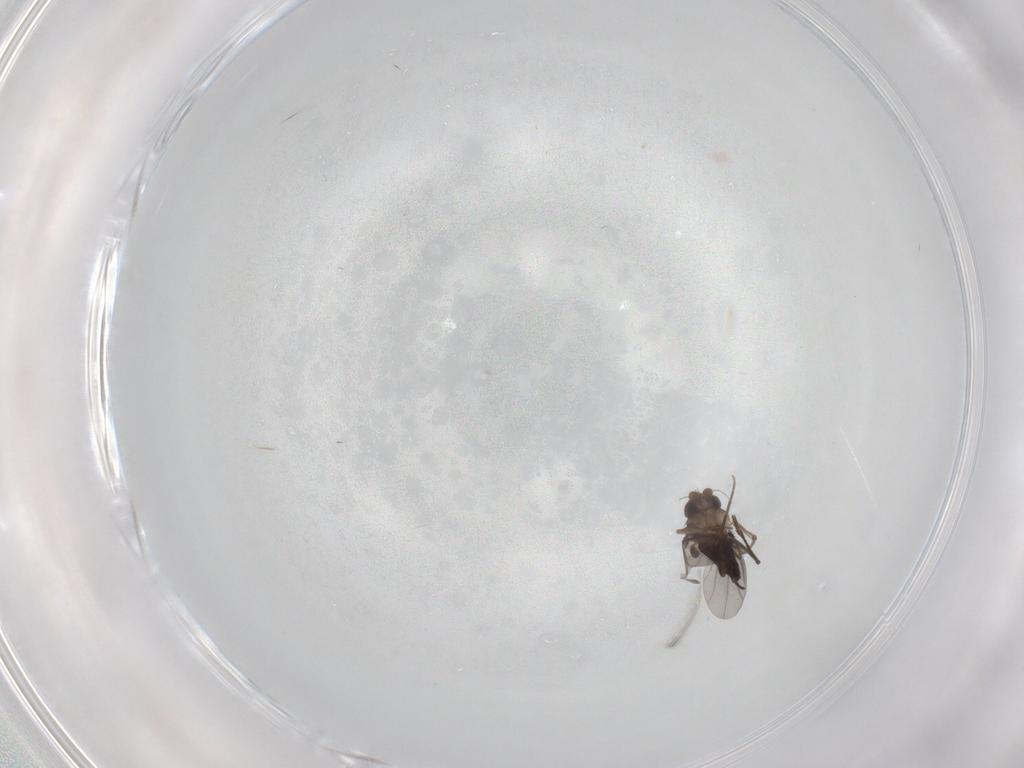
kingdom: Animalia
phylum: Arthropoda
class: Insecta
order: Diptera
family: Phoridae
